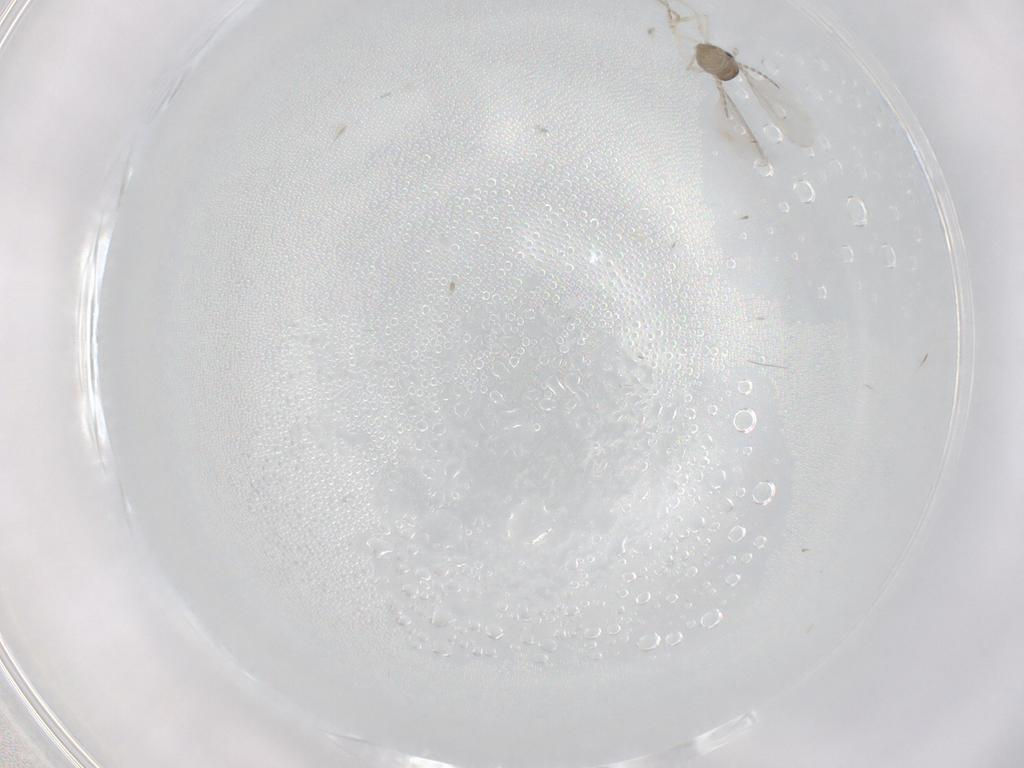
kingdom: Animalia
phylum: Arthropoda
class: Insecta
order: Diptera
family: Cecidomyiidae
